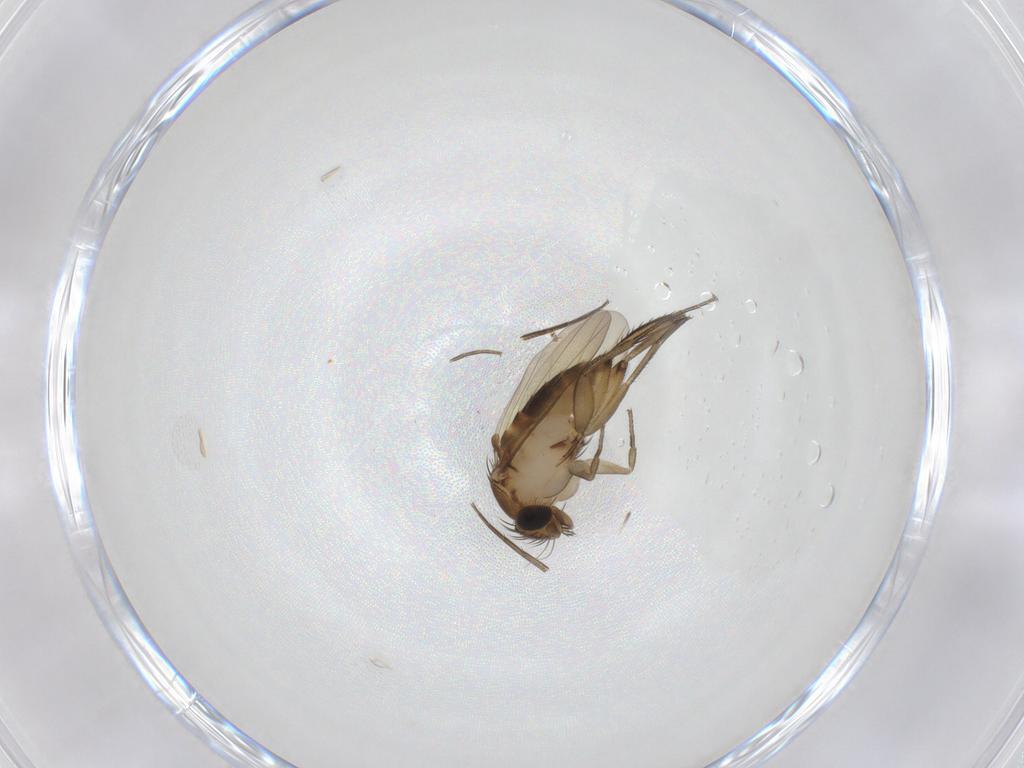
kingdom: Animalia
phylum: Arthropoda
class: Insecta
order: Diptera
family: Phoridae
